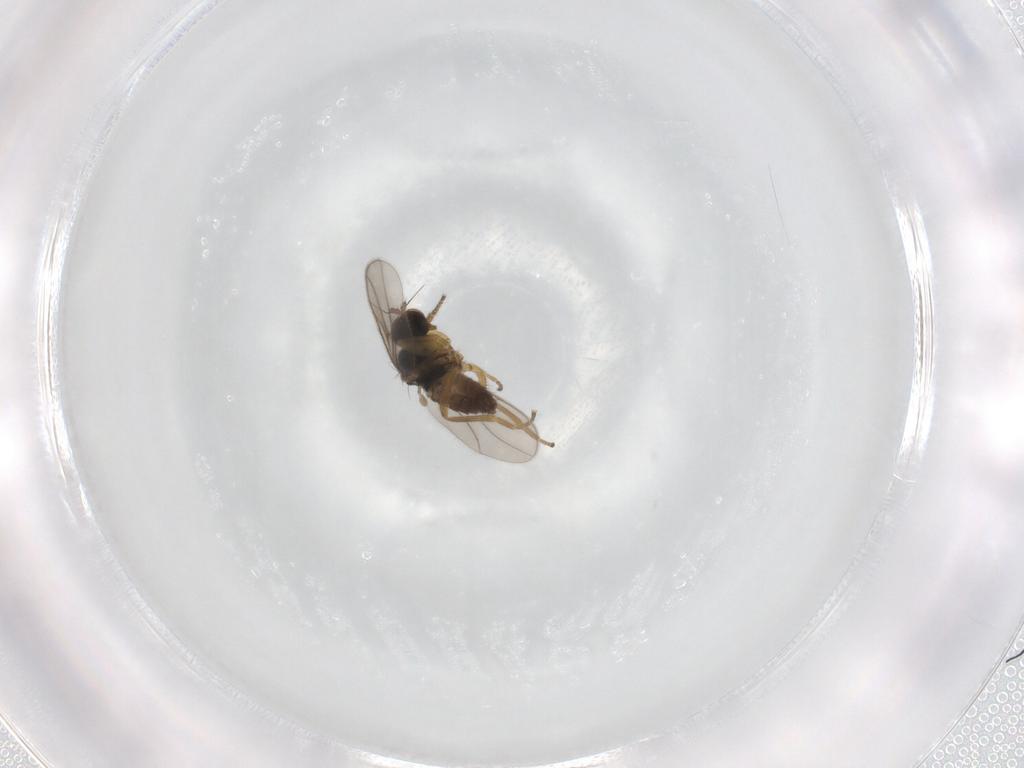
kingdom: Animalia
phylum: Arthropoda
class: Insecta
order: Diptera
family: Hybotidae
